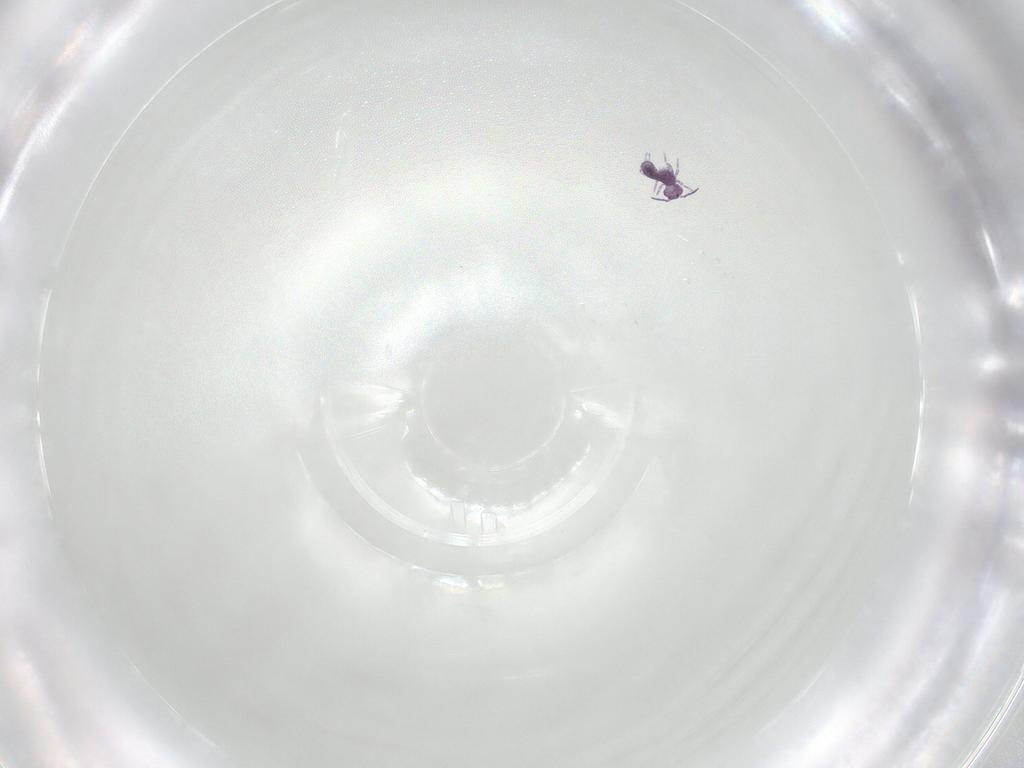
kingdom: Animalia
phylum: Arthropoda
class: Collembola
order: Symphypleona
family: Sminthurididae
